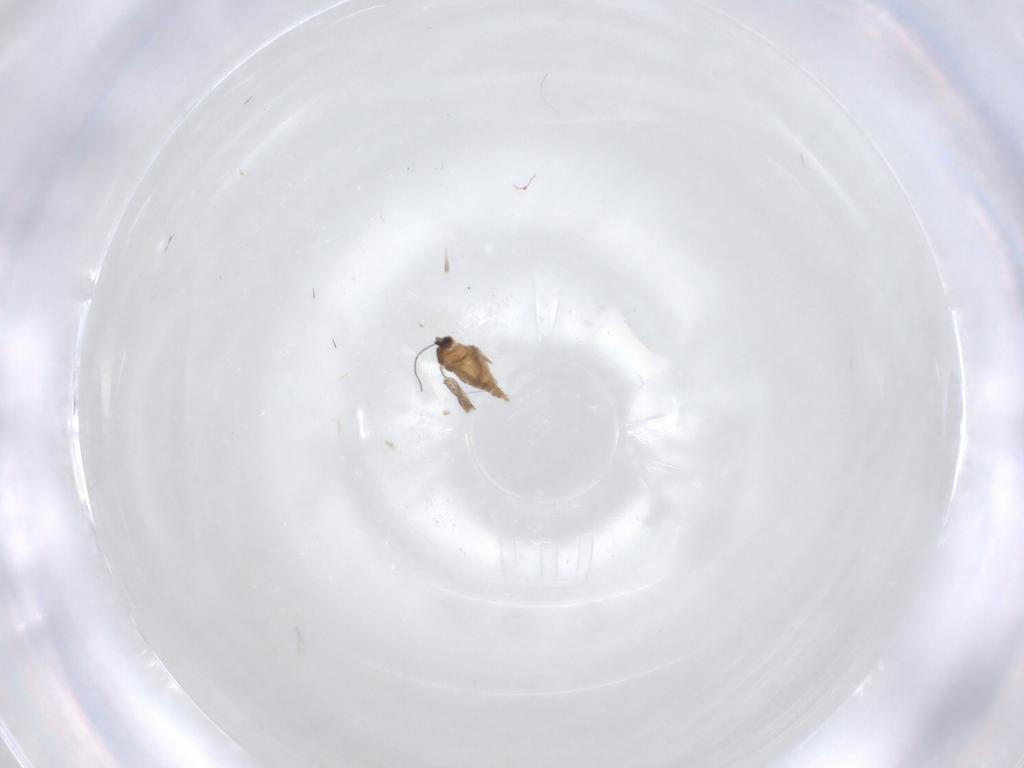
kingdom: Animalia
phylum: Arthropoda
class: Insecta
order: Diptera
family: Cecidomyiidae
